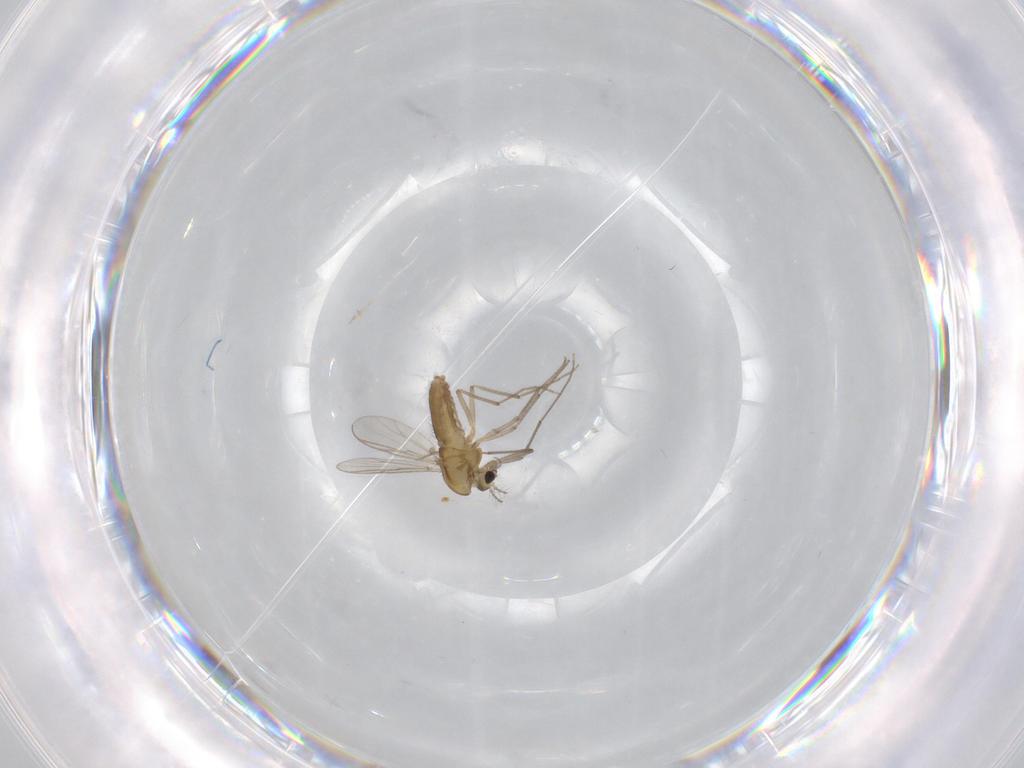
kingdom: Animalia
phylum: Arthropoda
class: Insecta
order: Diptera
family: Chironomidae
